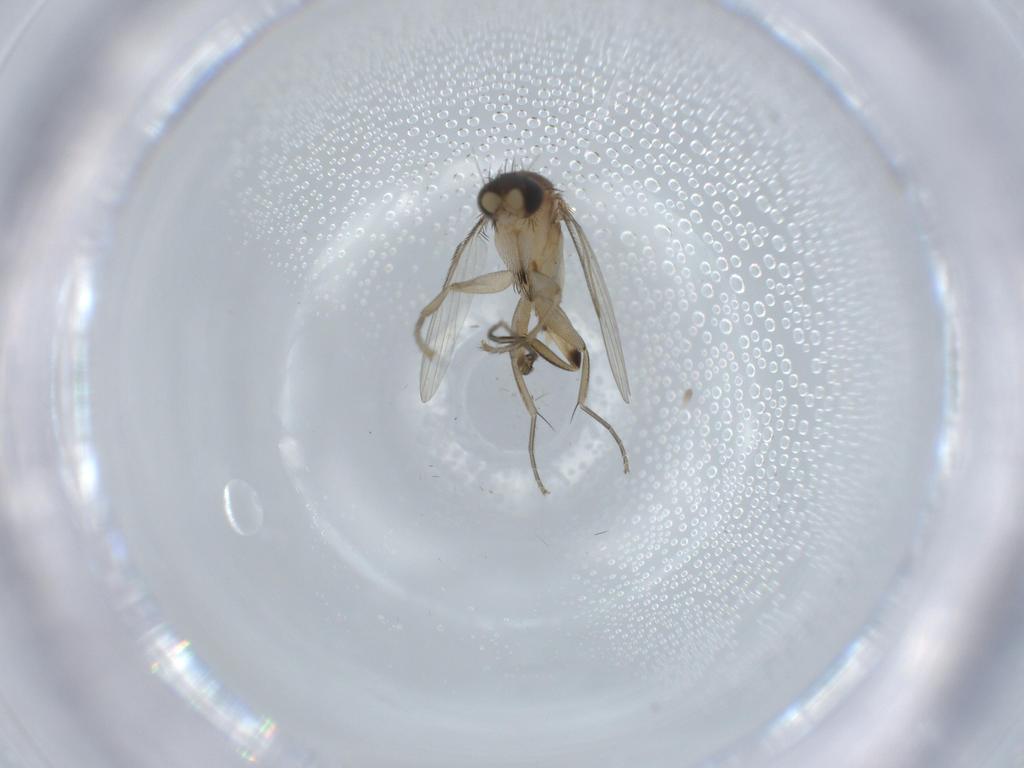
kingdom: Animalia
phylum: Arthropoda
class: Insecta
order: Diptera
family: Phoridae
